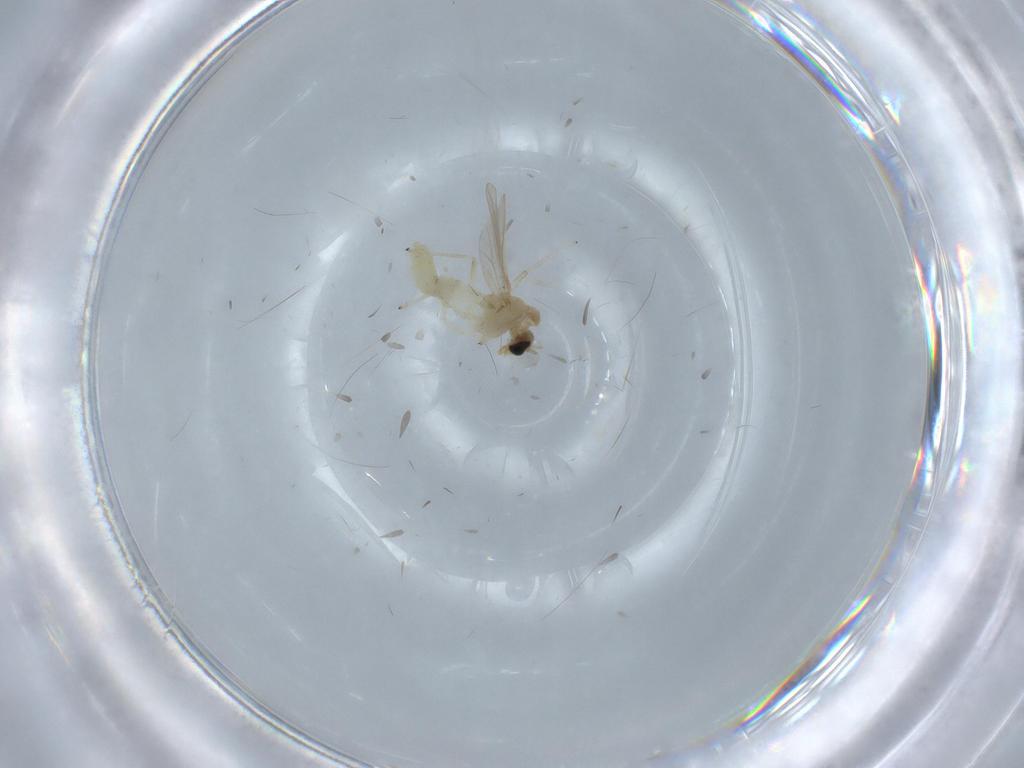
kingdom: Animalia
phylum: Arthropoda
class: Insecta
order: Diptera
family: Chironomidae
